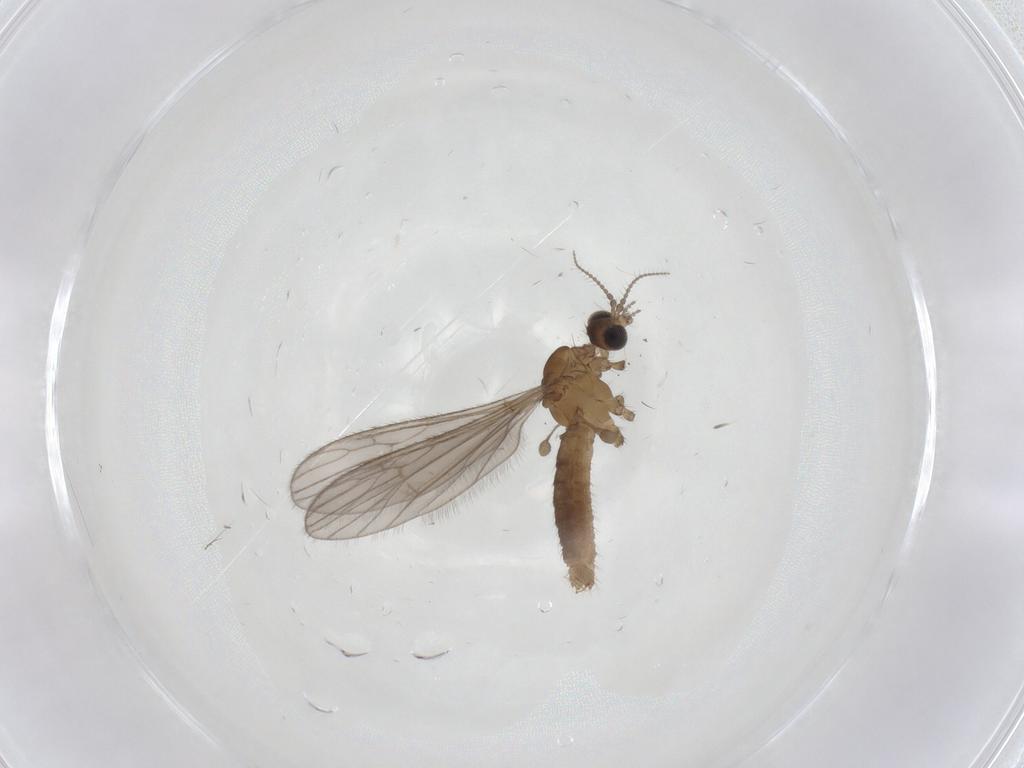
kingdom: Animalia
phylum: Arthropoda
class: Insecta
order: Diptera
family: Limoniidae
